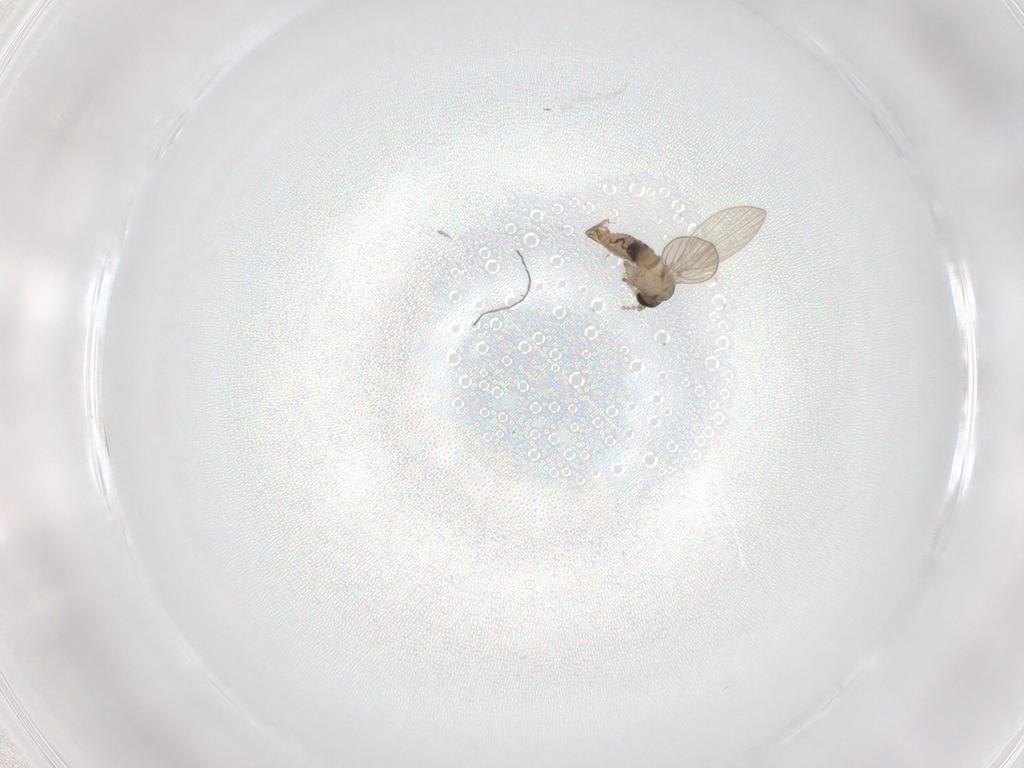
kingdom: Animalia
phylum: Arthropoda
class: Insecta
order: Diptera
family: Psychodidae
